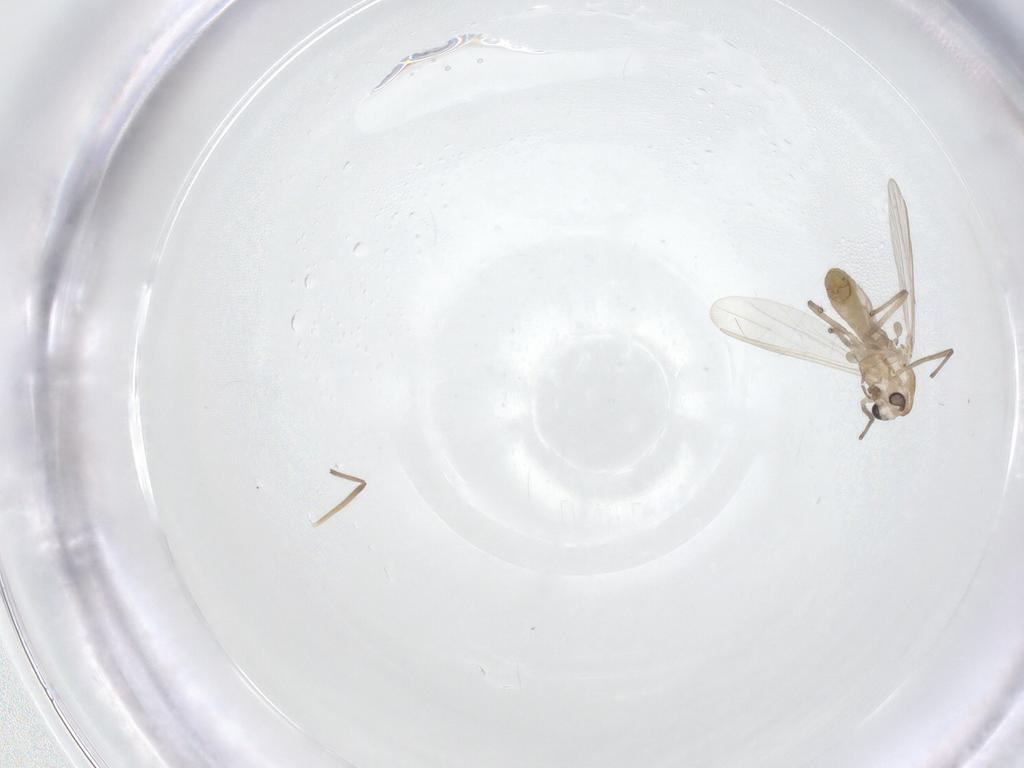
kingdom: Animalia
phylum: Arthropoda
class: Insecta
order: Diptera
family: Chironomidae
